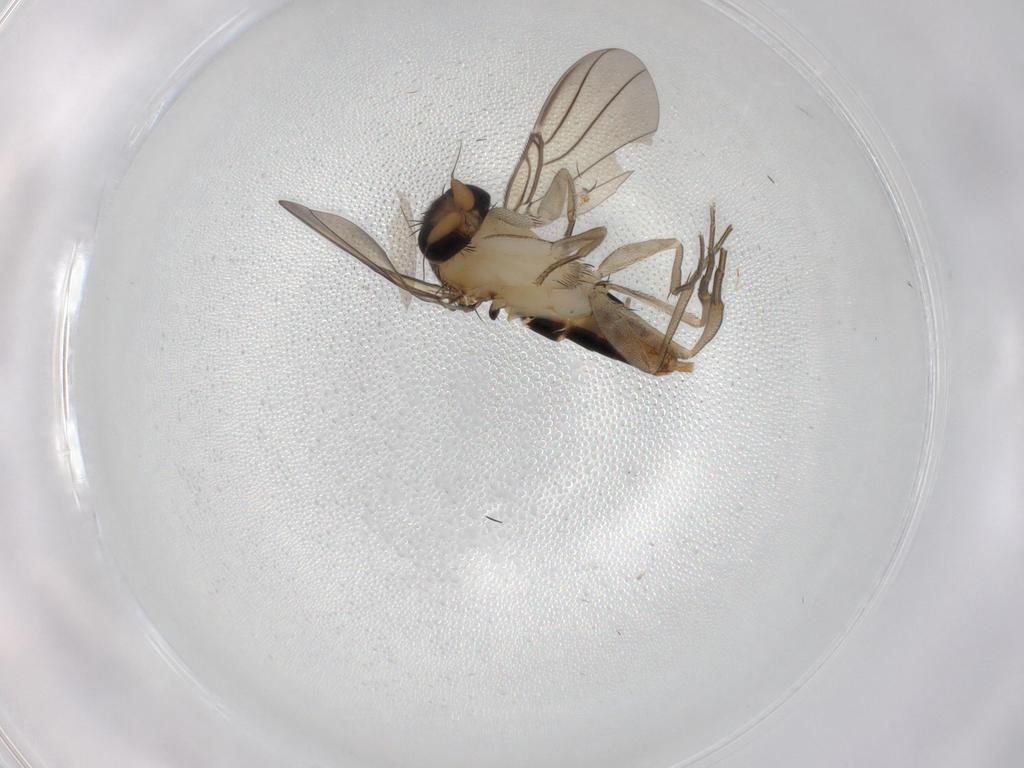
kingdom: Animalia
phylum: Arthropoda
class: Insecta
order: Diptera
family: Phoridae
